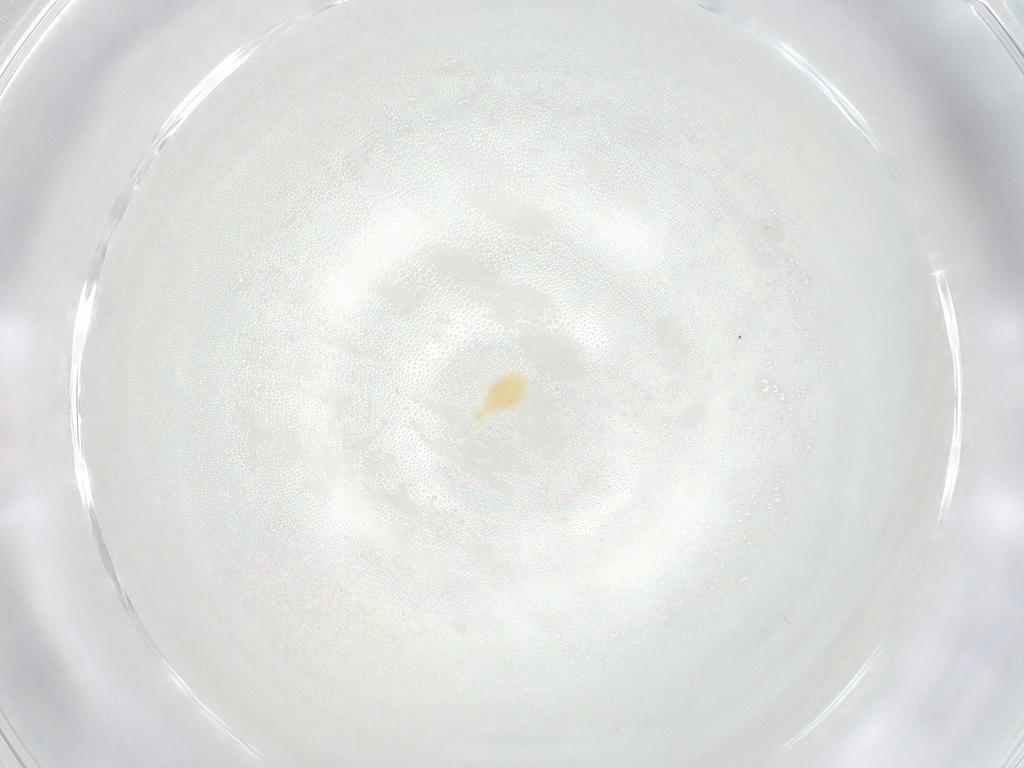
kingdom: Animalia
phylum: Arthropoda
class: Arachnida
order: Trombidiformes
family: Erythraeidae
